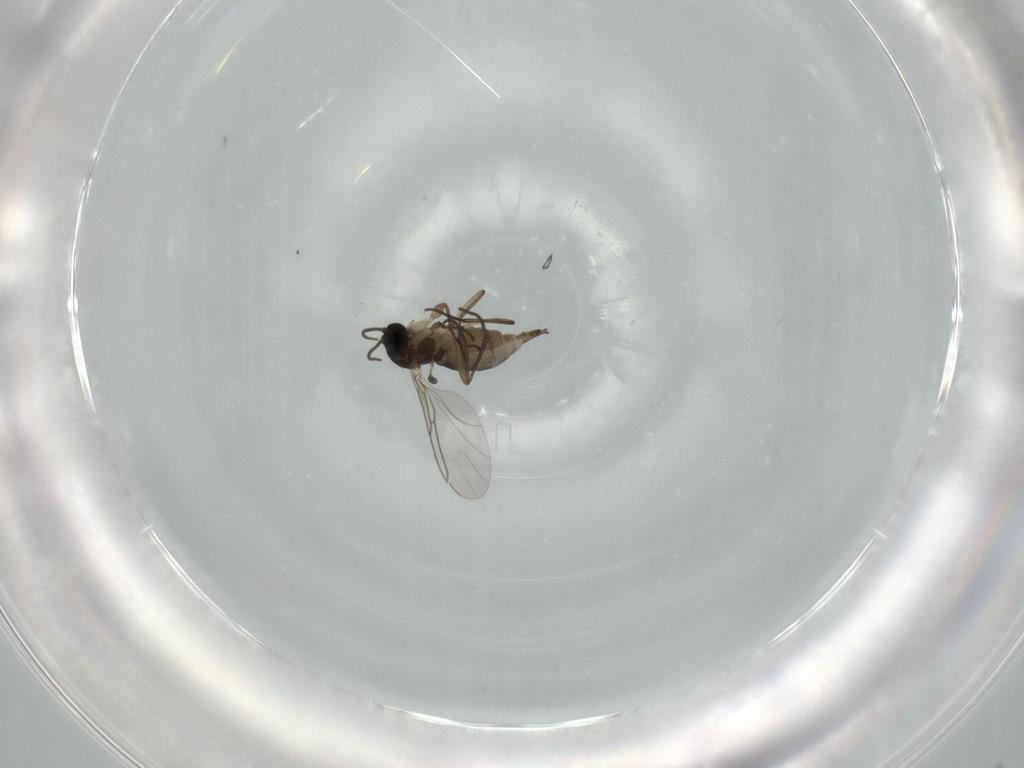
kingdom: Animalia
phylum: Arthropoda
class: Insecta
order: Diptera
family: Sciaridae
